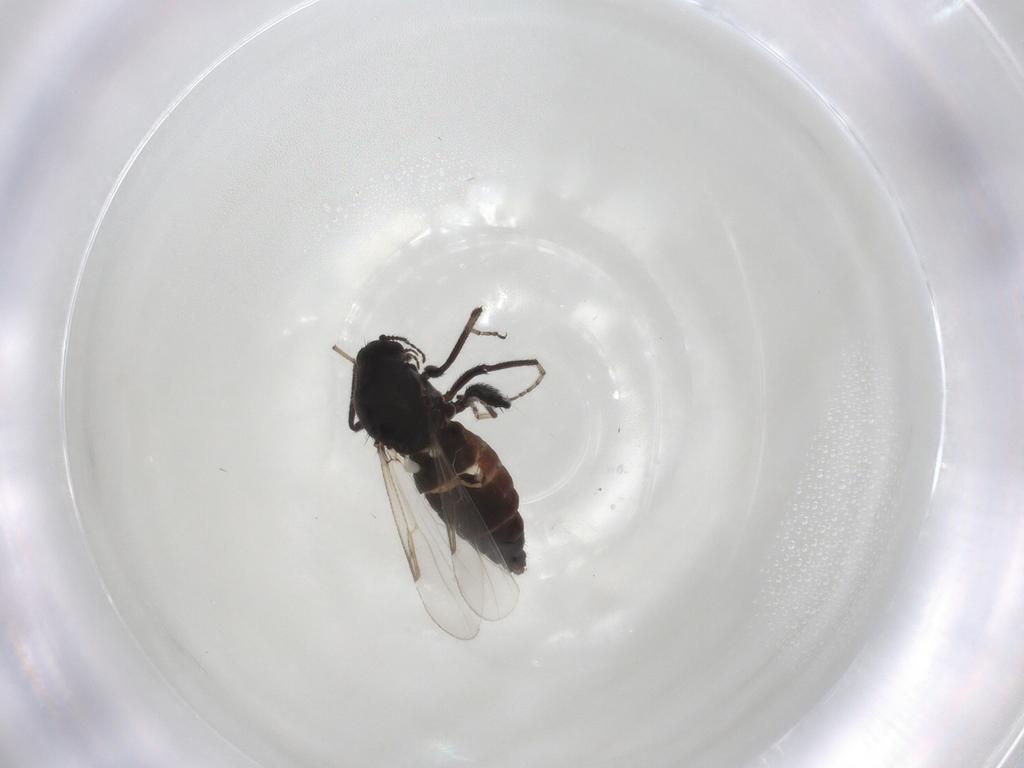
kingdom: Animalia
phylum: Arthropoda
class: Insecta
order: Diptera
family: Ceratopogonidae
